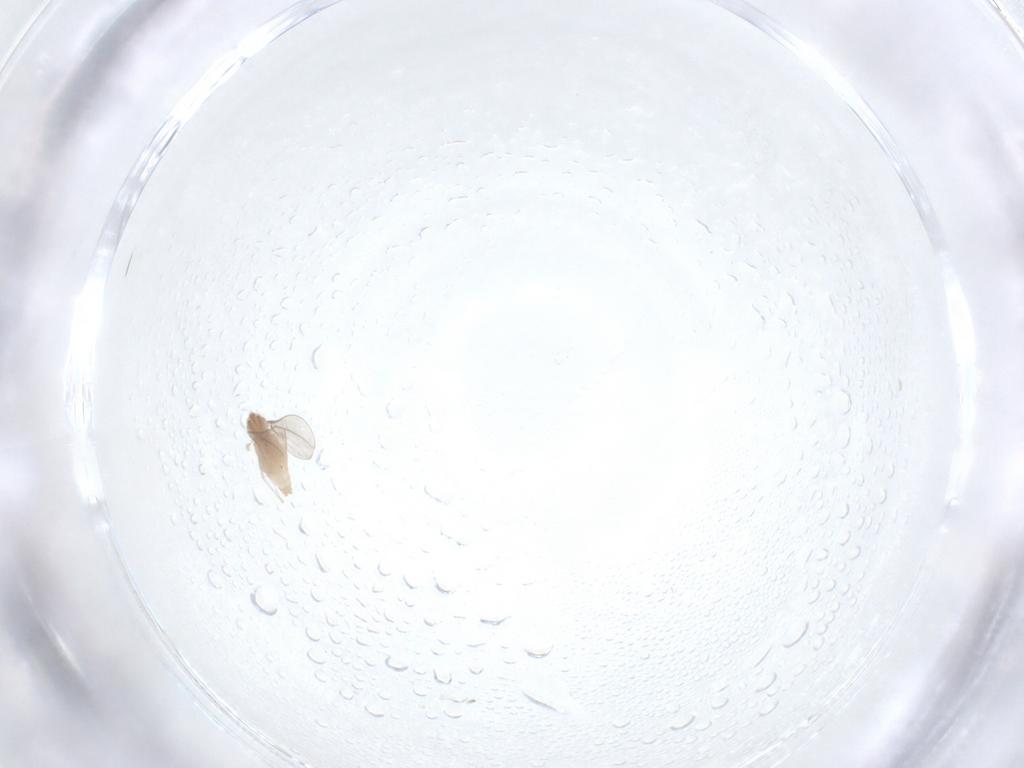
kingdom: Animalia
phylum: Arthropoda
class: Insecta
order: Diptera
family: Cecidomyiidae
